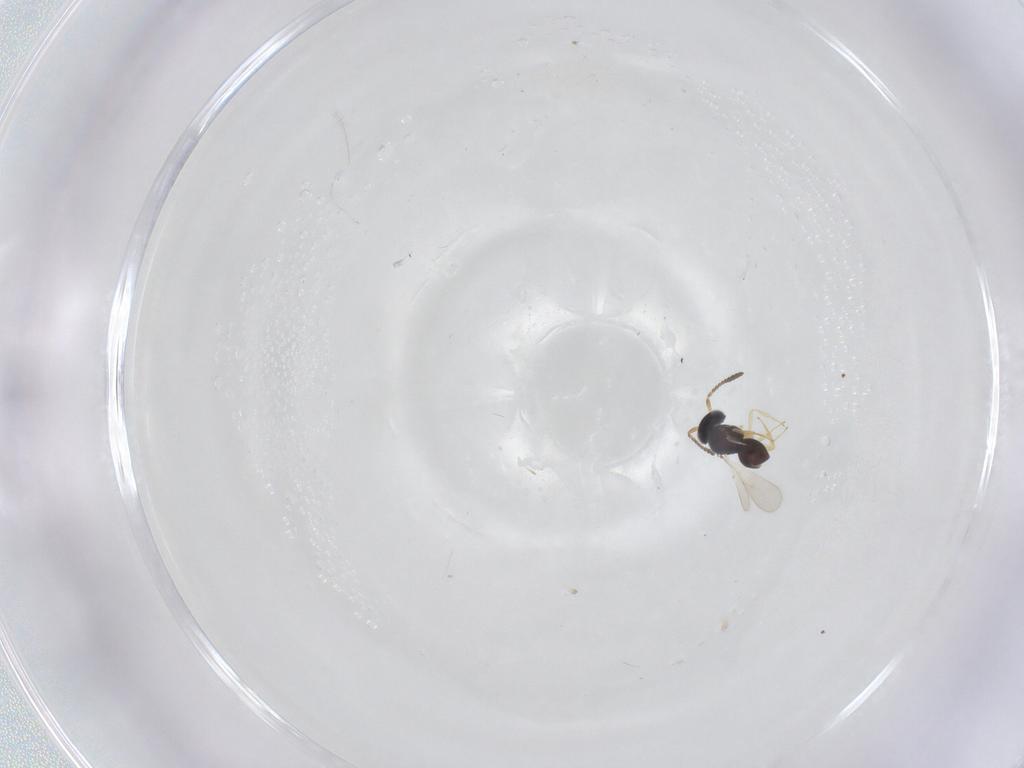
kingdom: Animalia
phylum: Arthropoda
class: Insecta
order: Hymenoptera
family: Scelionidae
